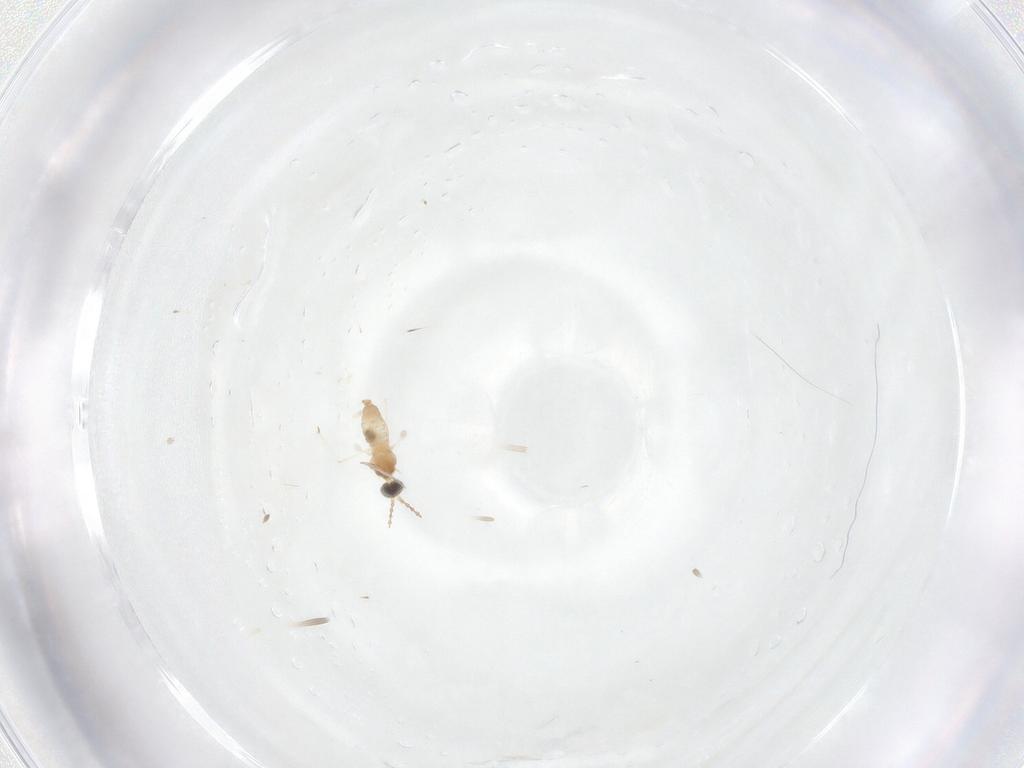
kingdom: Animalia
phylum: Arthropoda
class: Insecta
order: Diptera
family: Cecidomyiidae
